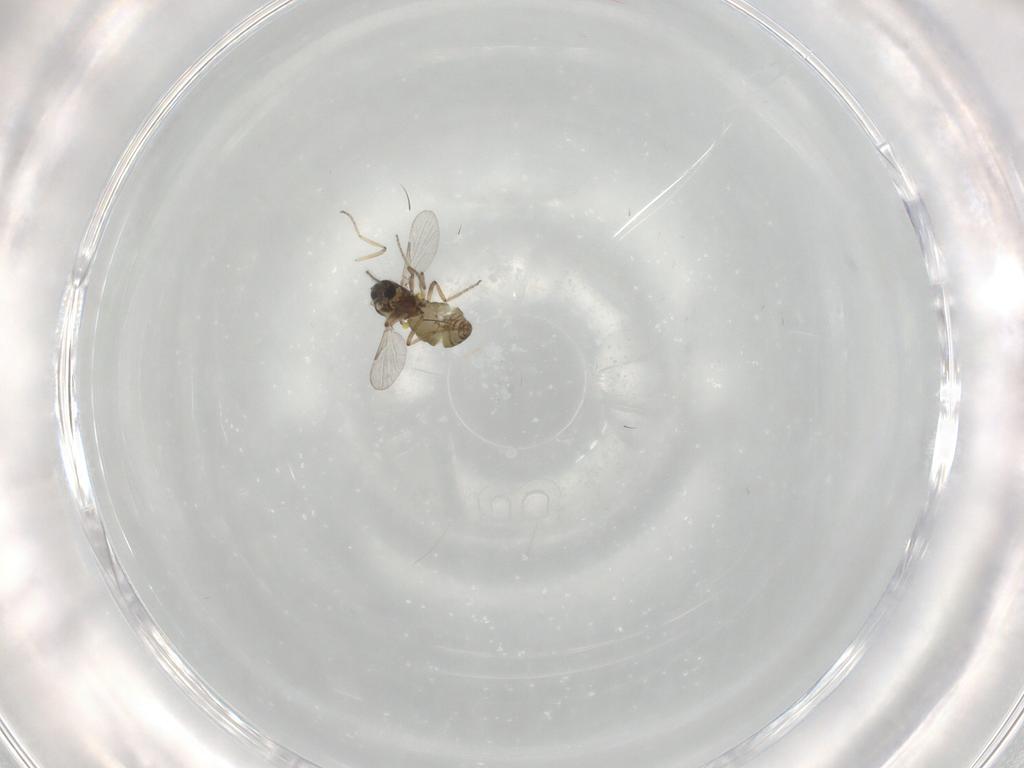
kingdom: Animalia
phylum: Arthropoda
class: Insecta
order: Diptera
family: Ceratopogonidae
